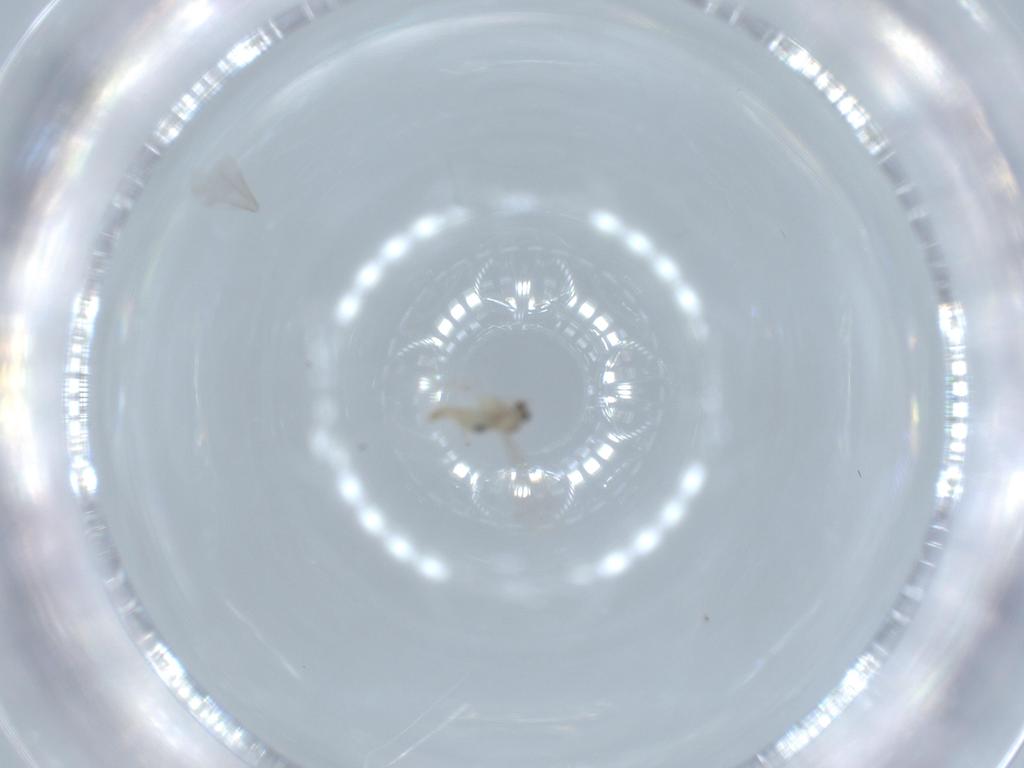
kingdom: Animalia
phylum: Arthropoda
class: Insecta
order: Diptera
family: Cecidomyiidae
